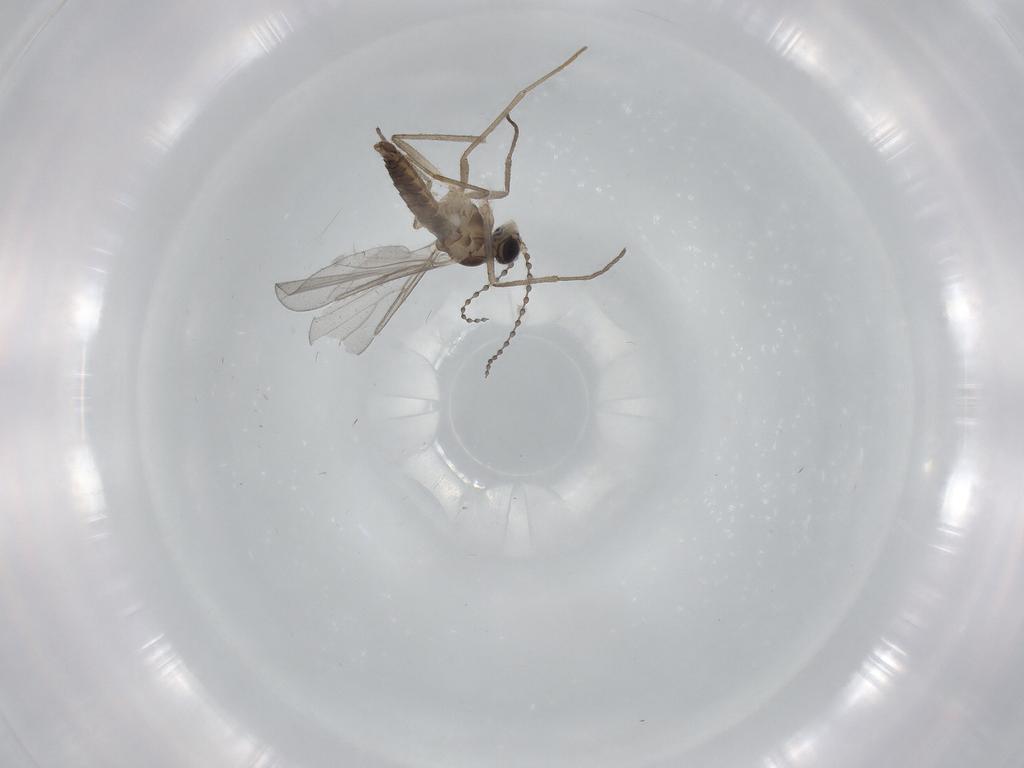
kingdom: Animalia
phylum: Arthropoda
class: Insecta
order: Diptera
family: Cecidomyiidae
